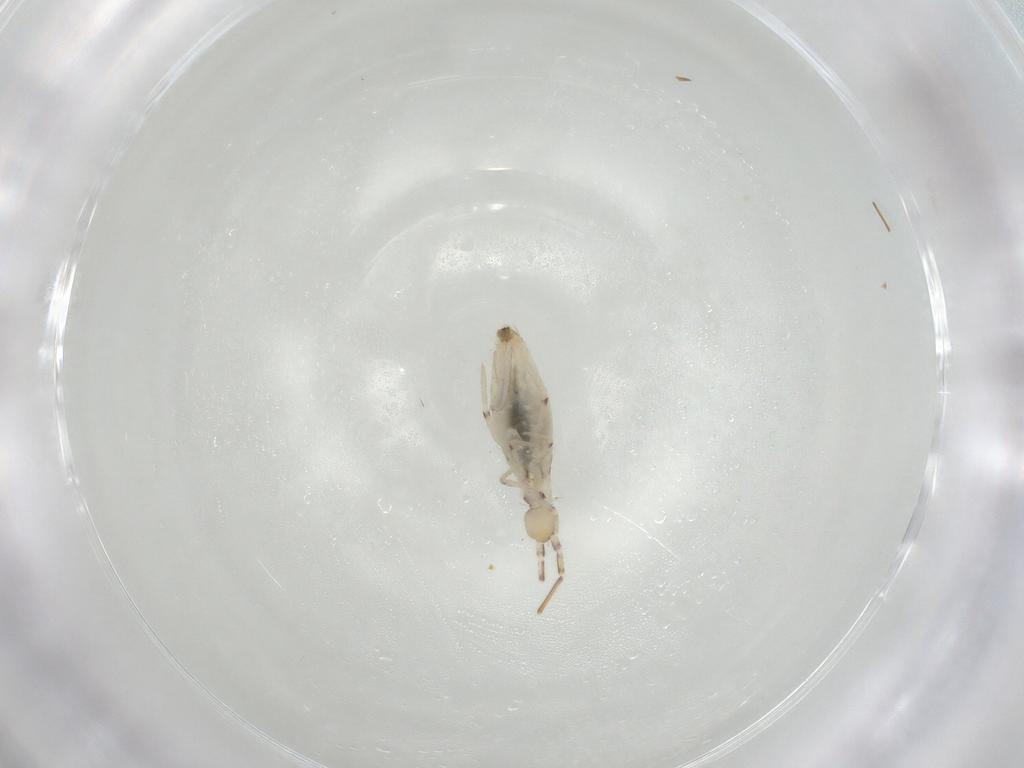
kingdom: Animalia
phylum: Arthropoda
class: Collembola
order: Entomobryomorpha
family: Entomobryidae
